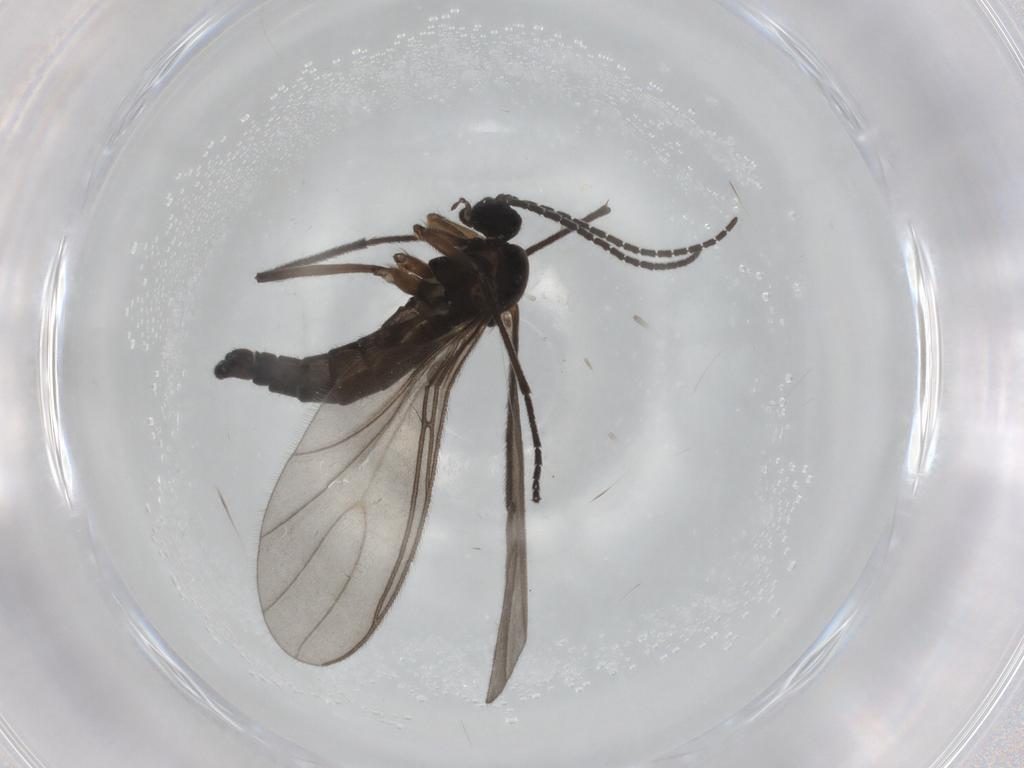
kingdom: Animalia
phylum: Arthropoda
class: Insecta
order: Diptera
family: Sciaridae
